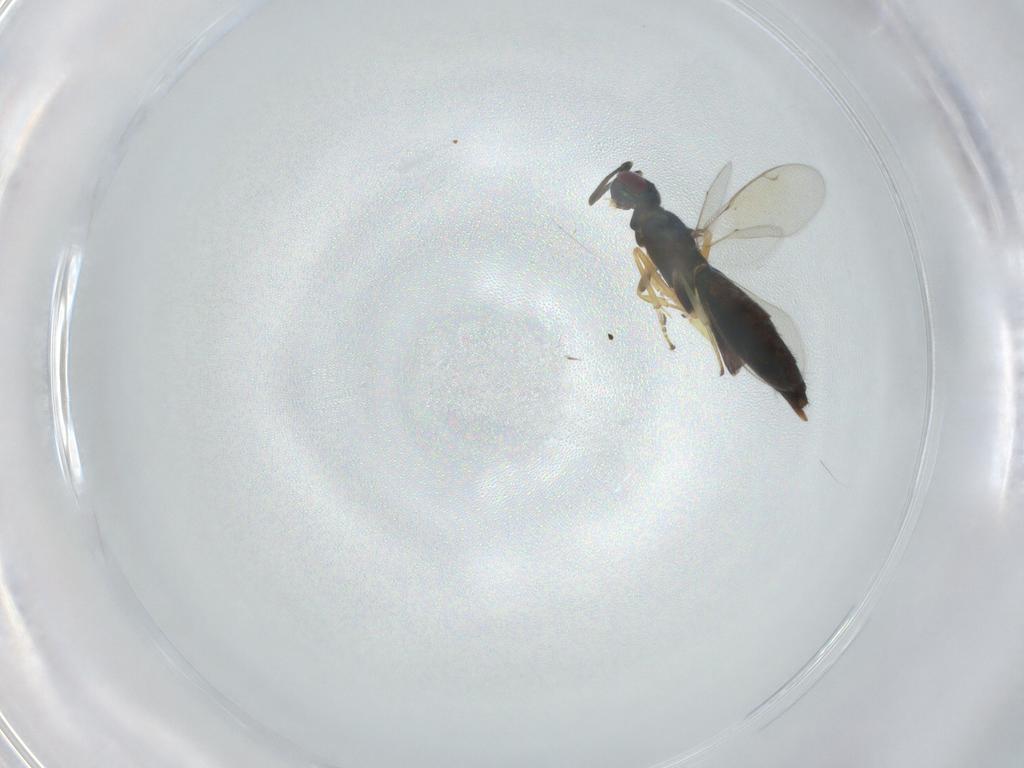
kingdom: Animalia
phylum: Arthropoda
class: Insecta
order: Hymenoptera
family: Eupelmidae
